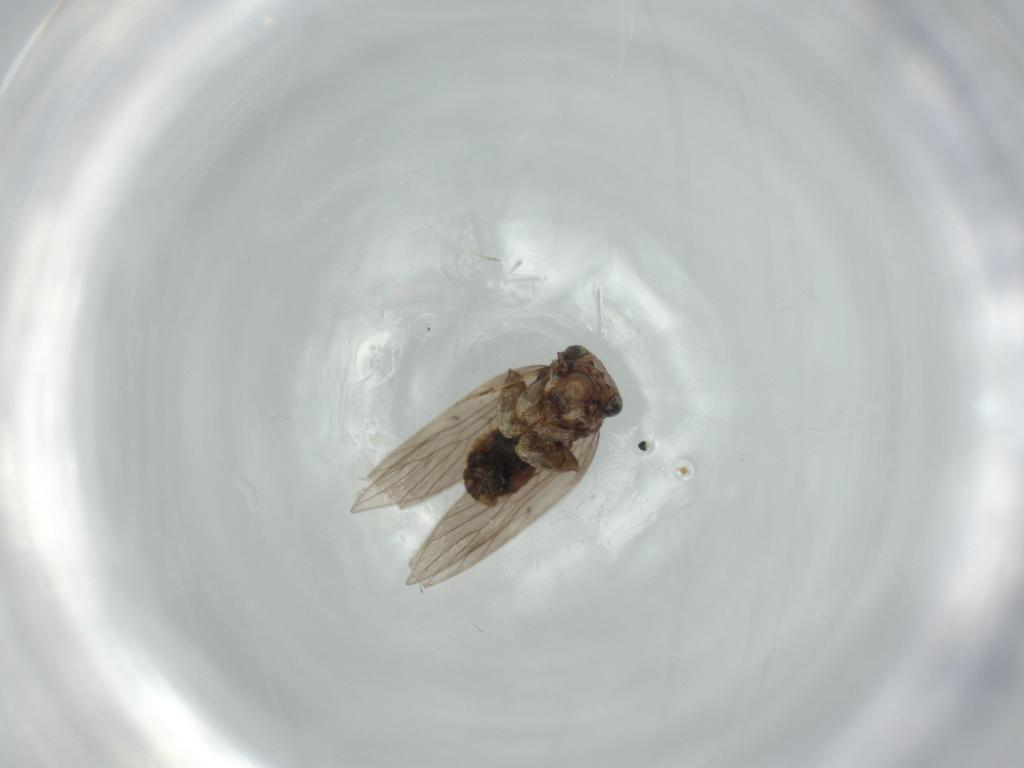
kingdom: Animalia
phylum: Arthropoda
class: Insecta
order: Psocodea
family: Lepidopsocidae
